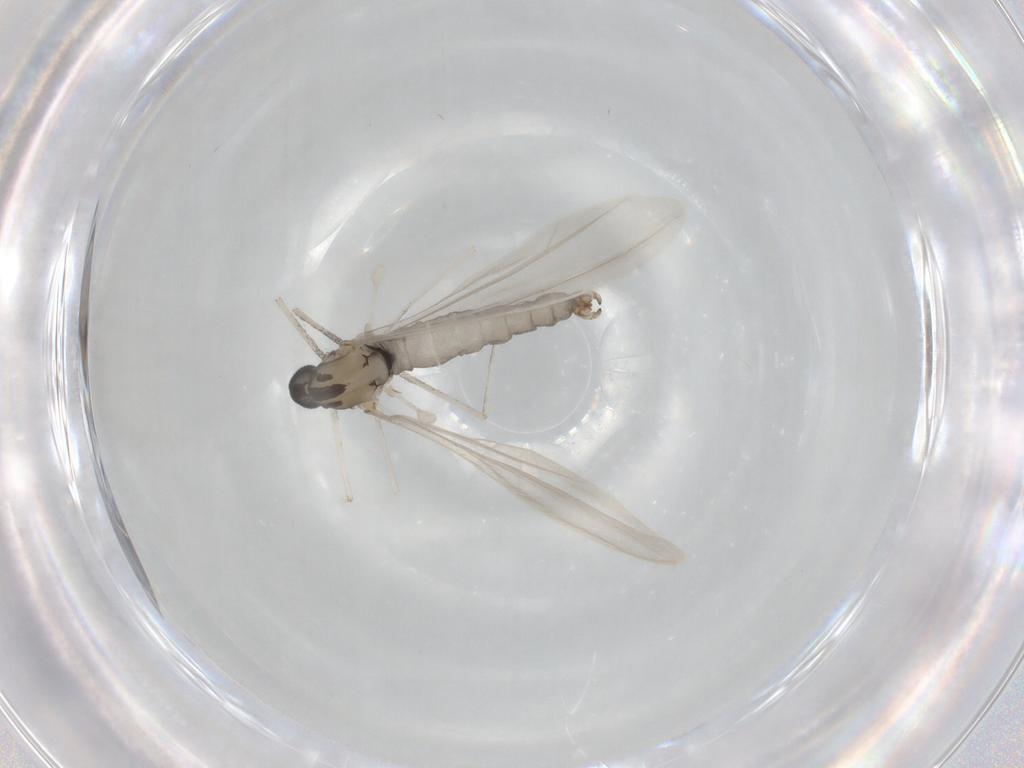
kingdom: Animalia
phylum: Arthropoda
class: Insecta
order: Diptera
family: Cecidomyiidae
